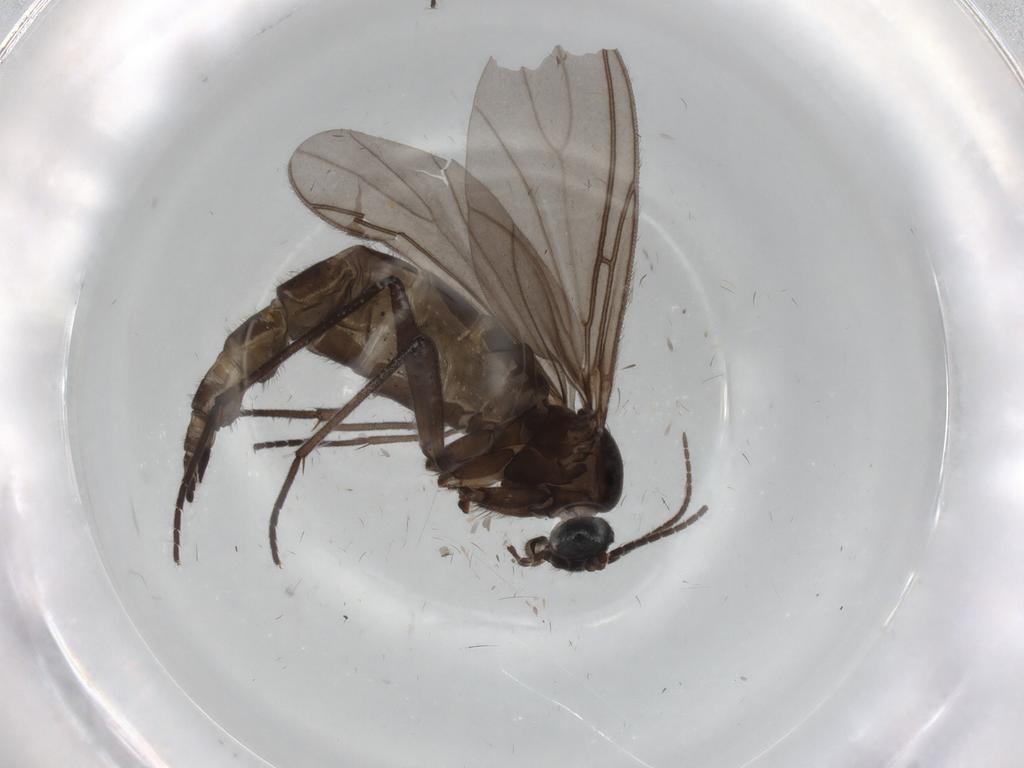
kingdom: Animalia
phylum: Arthropoda
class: Insecta
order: Diptera
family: Sciaridae
